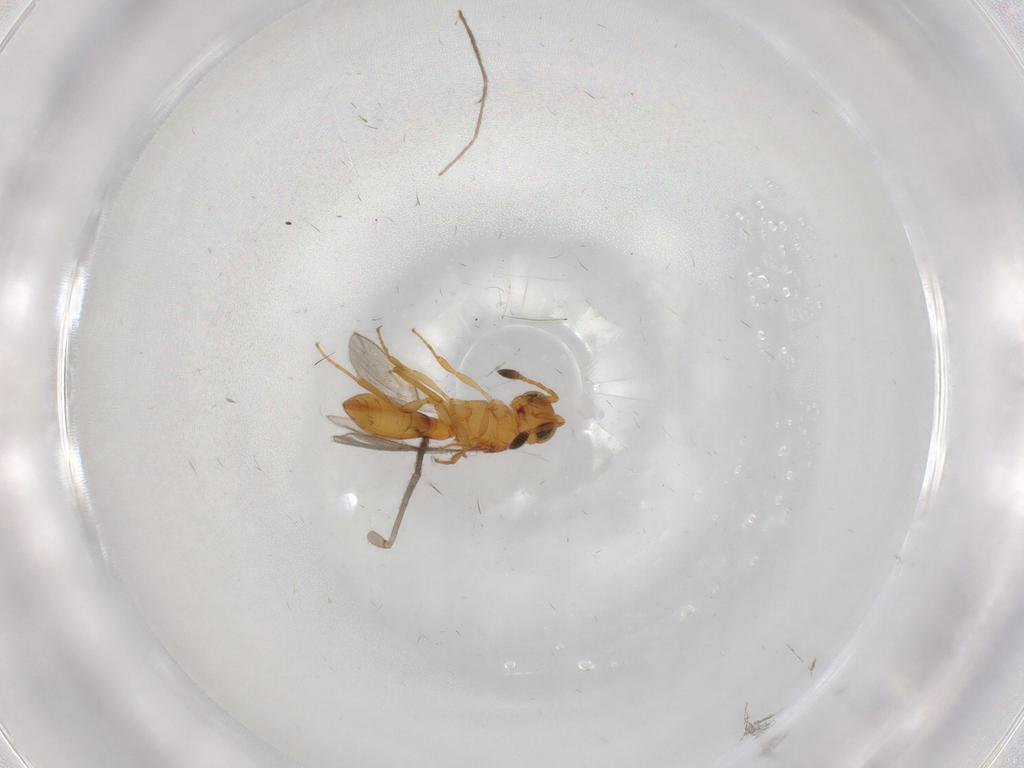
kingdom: Animalia
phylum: Arthropoda
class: Insecta
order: Hymenoptera
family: Scelionidae
